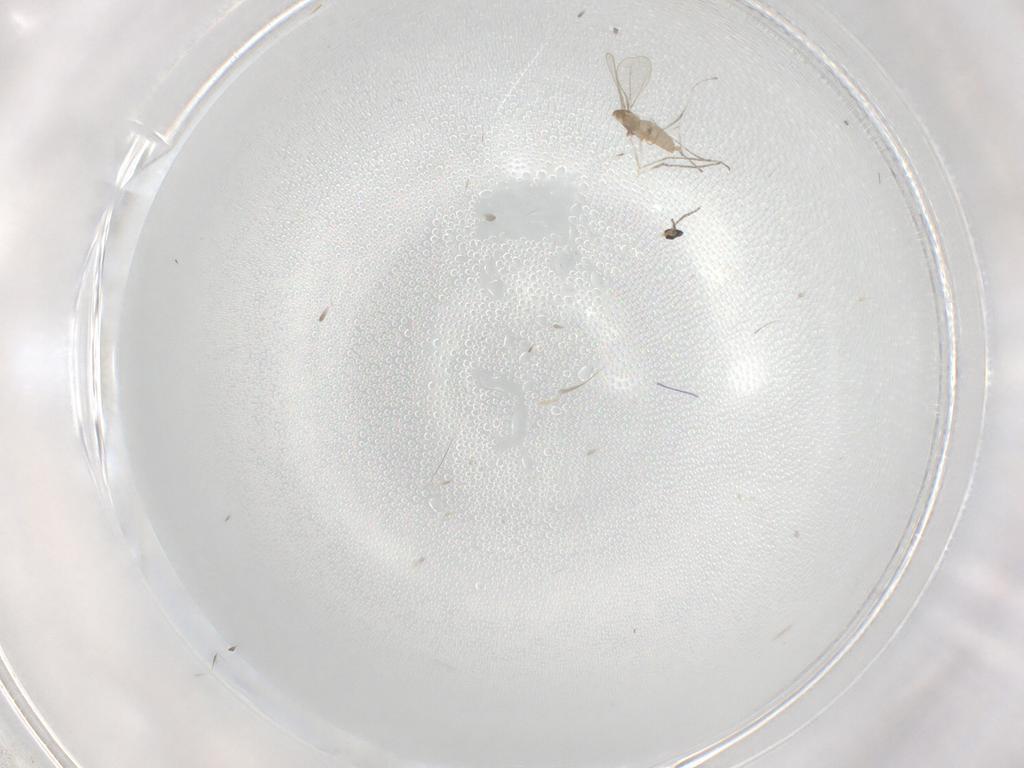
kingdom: Animalia
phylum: Arthropoda
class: Insecta
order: Diptera
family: Cecidomyiidae
